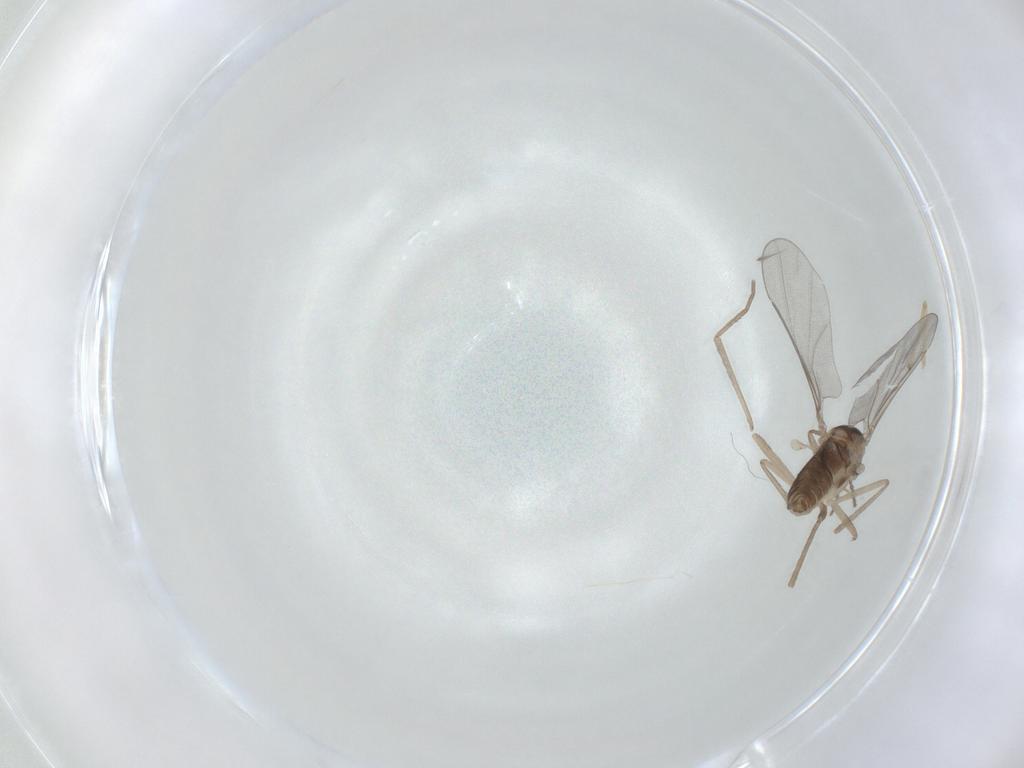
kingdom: Animalia
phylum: Arthropoda
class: Insecta
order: Diptera
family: Cecidomyiidae
